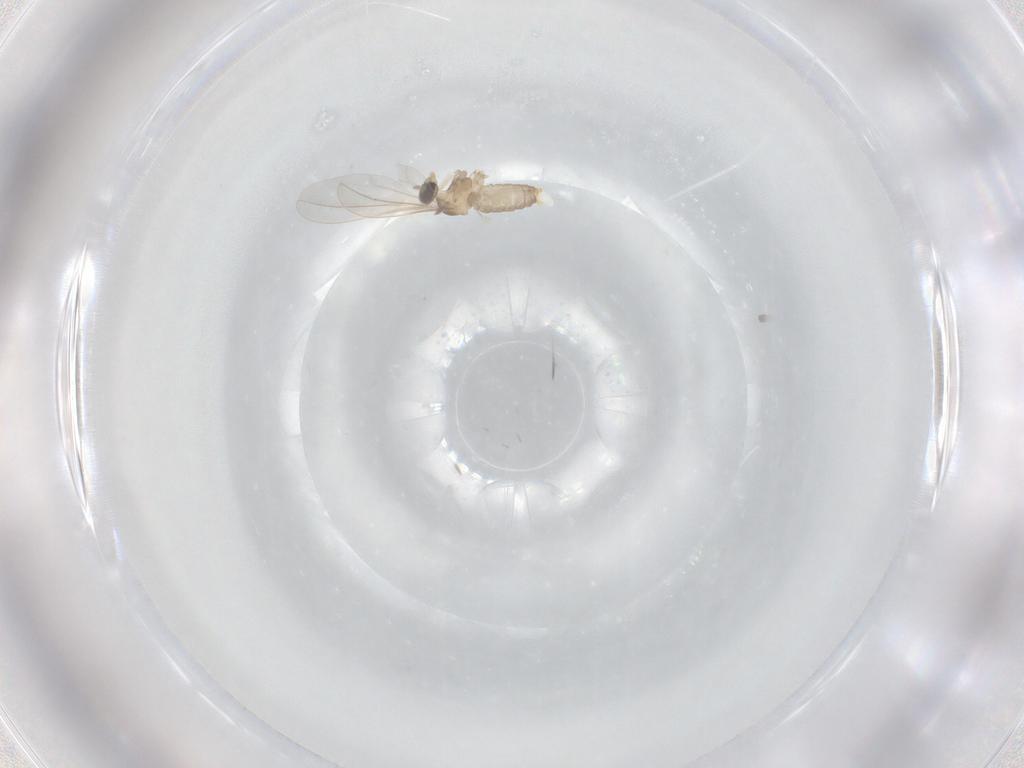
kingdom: Animalia
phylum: Arthropoda
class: Insecta
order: Diptera
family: Cecidomyiidae
